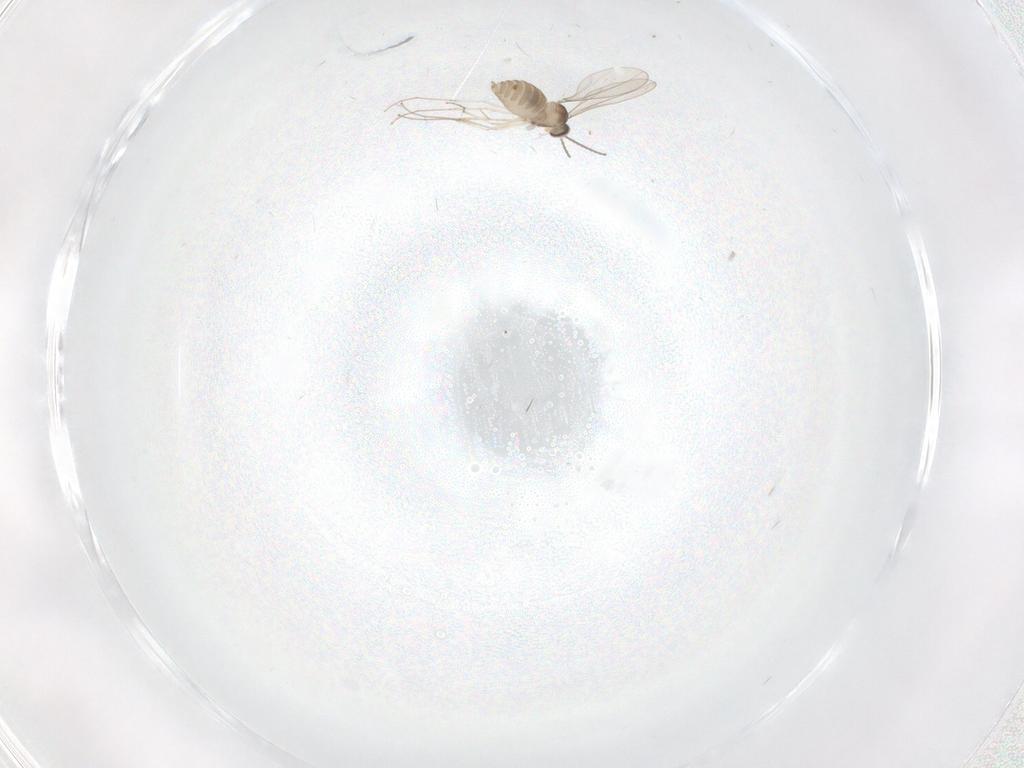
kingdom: Animalia
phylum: Arthropoda
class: Insecta
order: Diptera
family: Cecidomyiidae
